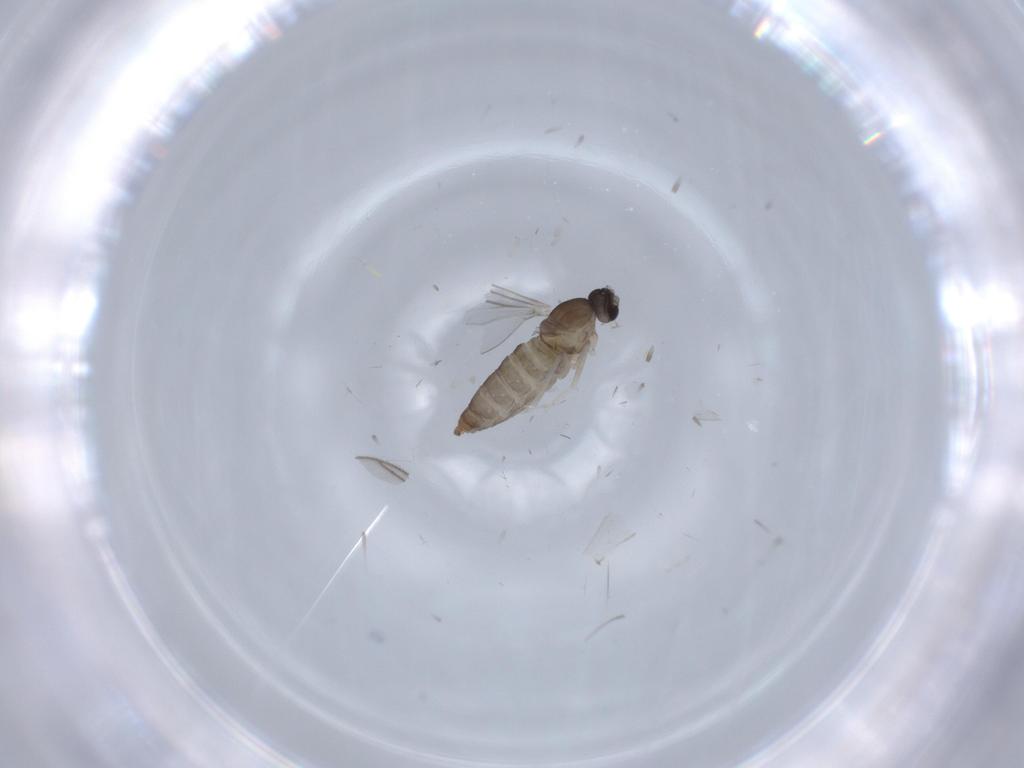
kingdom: Animalia
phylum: Arthropoda
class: Insecta
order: Diptera
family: Cecidomyiidae
